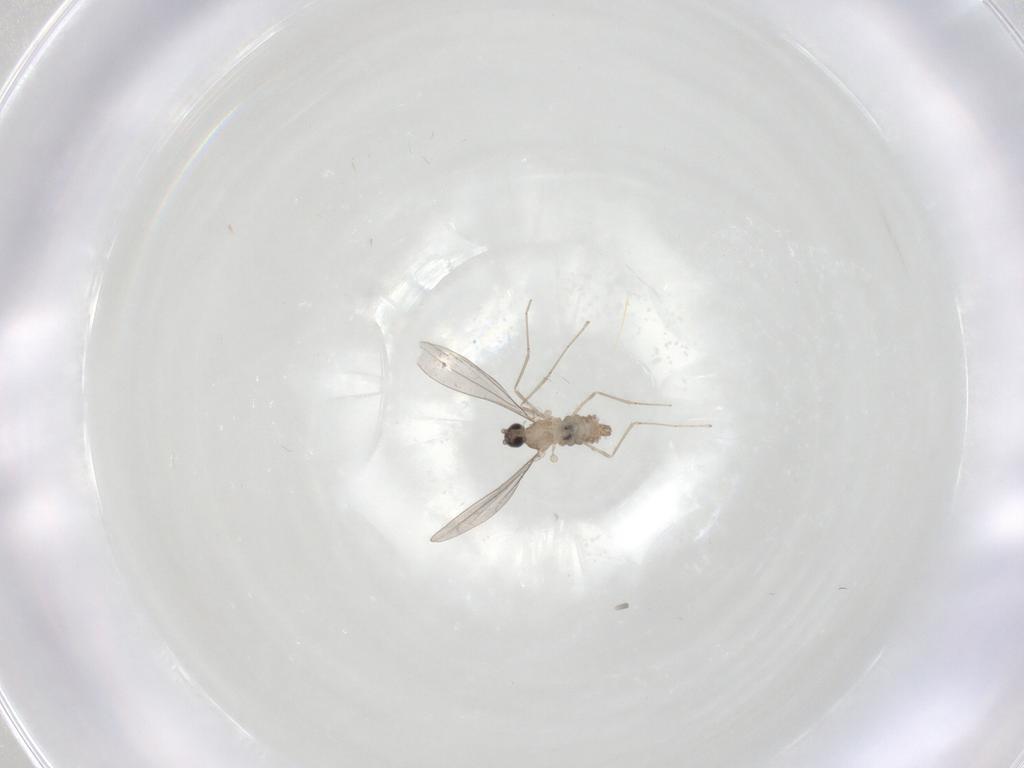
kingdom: Animalia
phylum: Arthropoda
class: Insecta
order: Diptera
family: Cecidomyiidae
